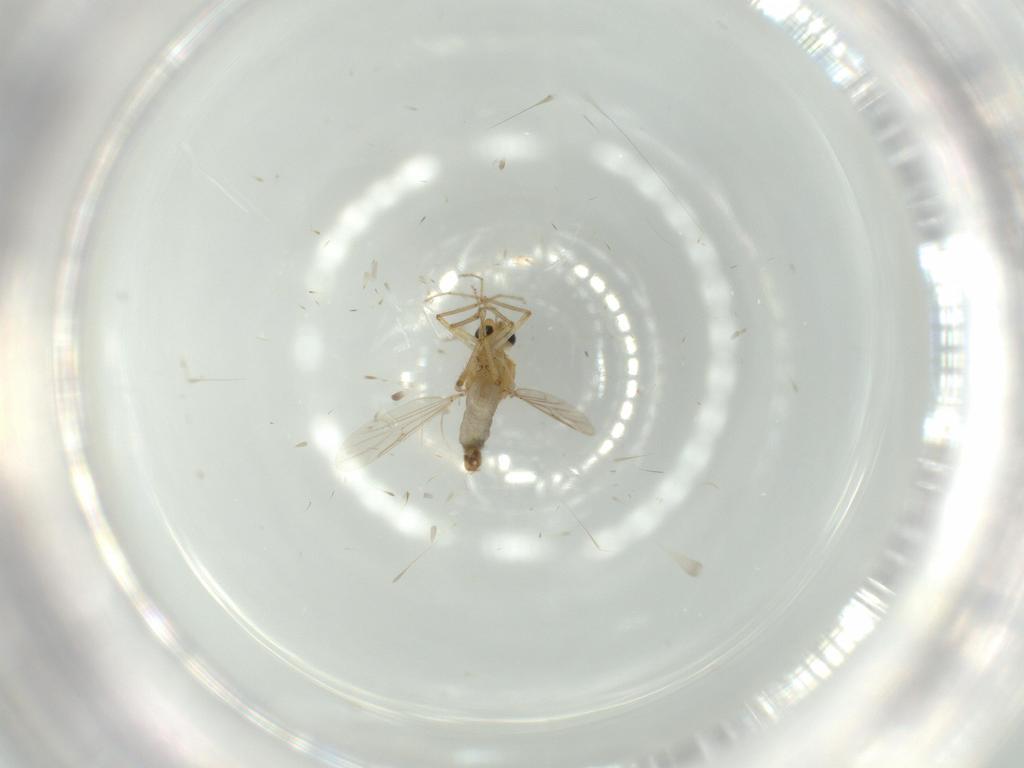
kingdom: Animalia
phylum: Arthropoda
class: Insecta
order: Diptera
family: Ceratopogonidae
